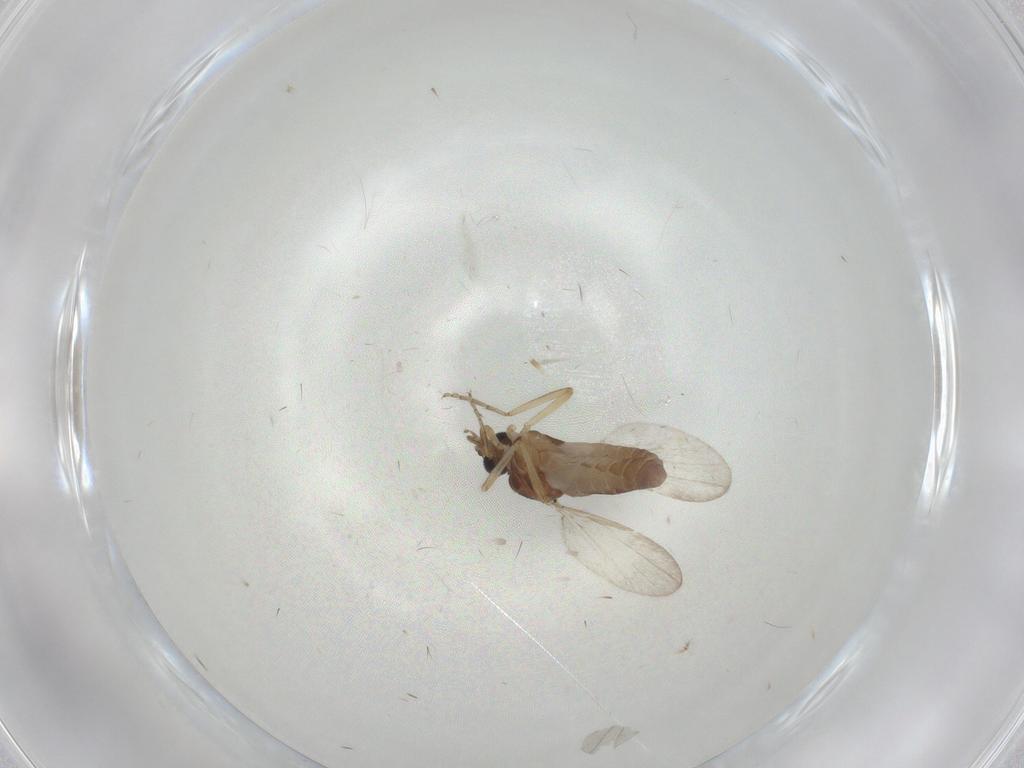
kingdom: Animalia
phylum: Arthropoda
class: Insecta
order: Diptera
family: Ceratopogonidae
